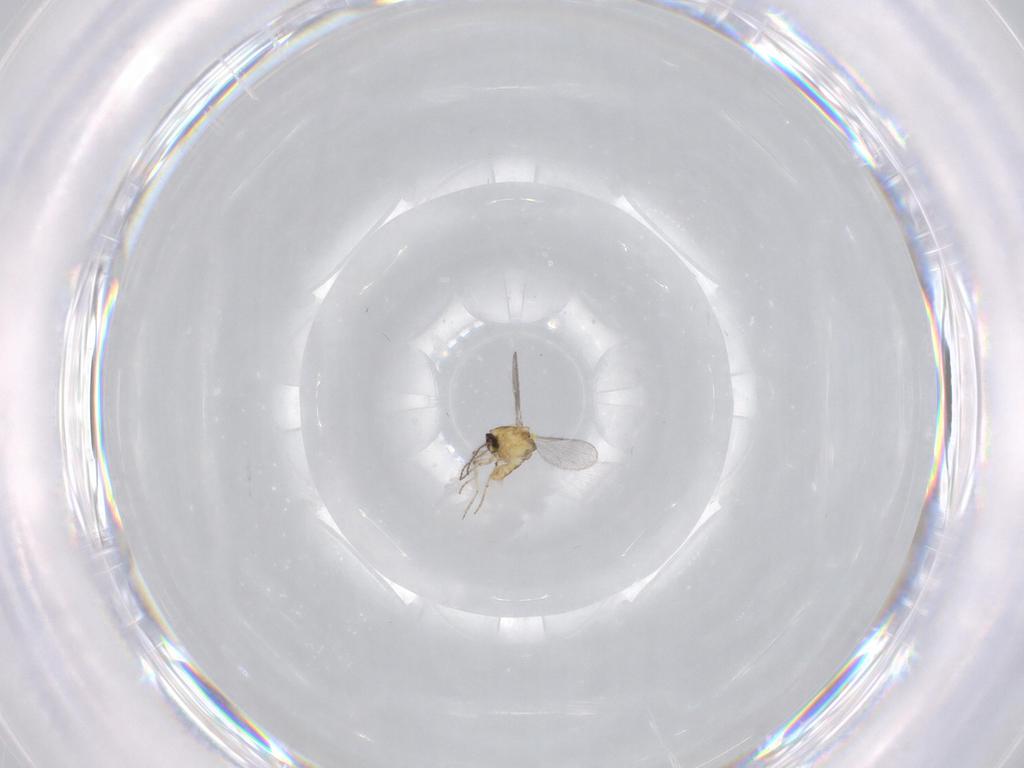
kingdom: Animalia
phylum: Arthropoda
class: Insecta
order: Diptera
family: Ceratopogonidae
